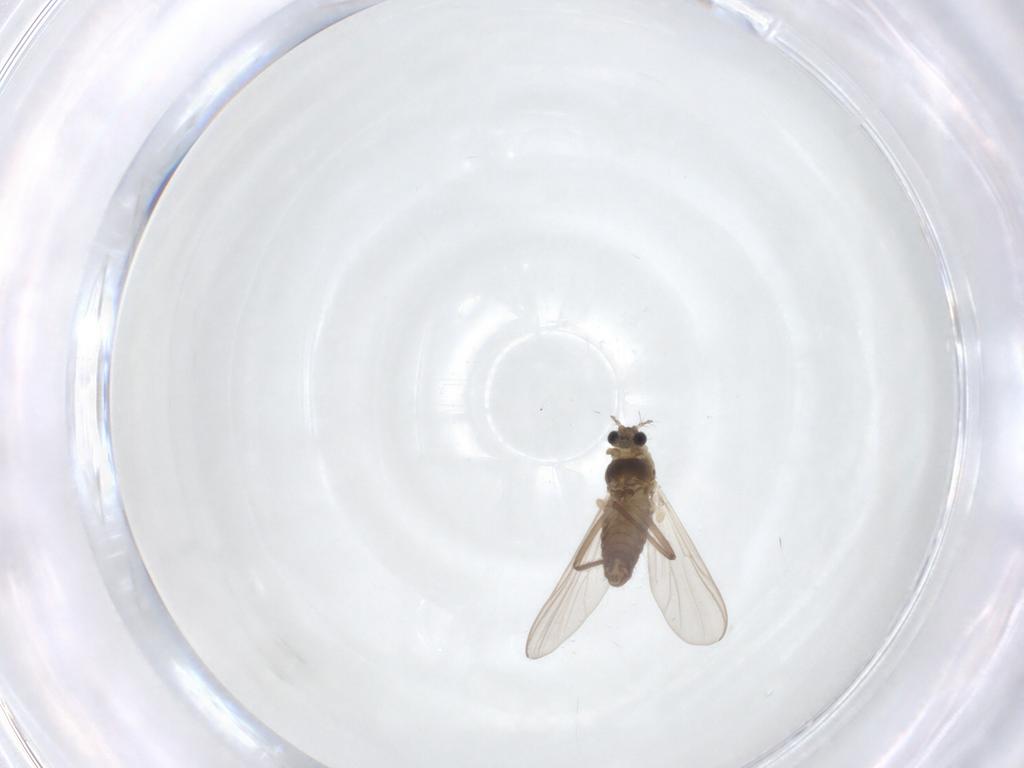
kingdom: Animalia
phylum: Arthropoda
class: Insecta
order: Diptera
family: Chironomidae
